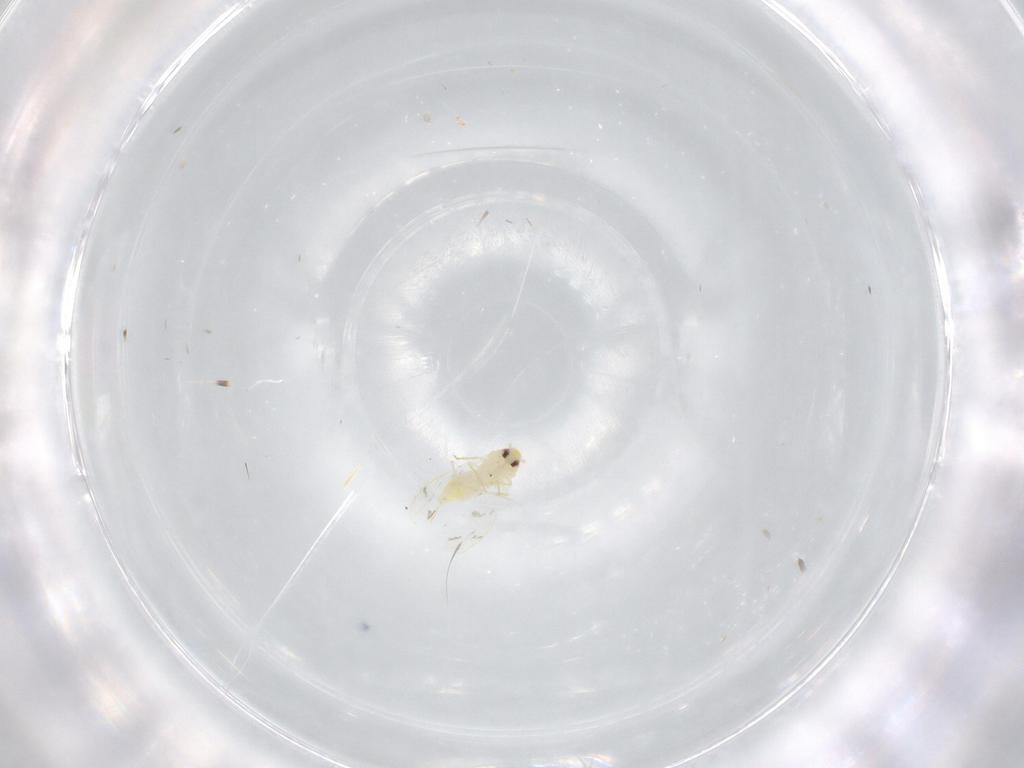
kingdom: Animalia
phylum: Arthropoda
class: Insecta
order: Hemiptera
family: Aleyrodidae
